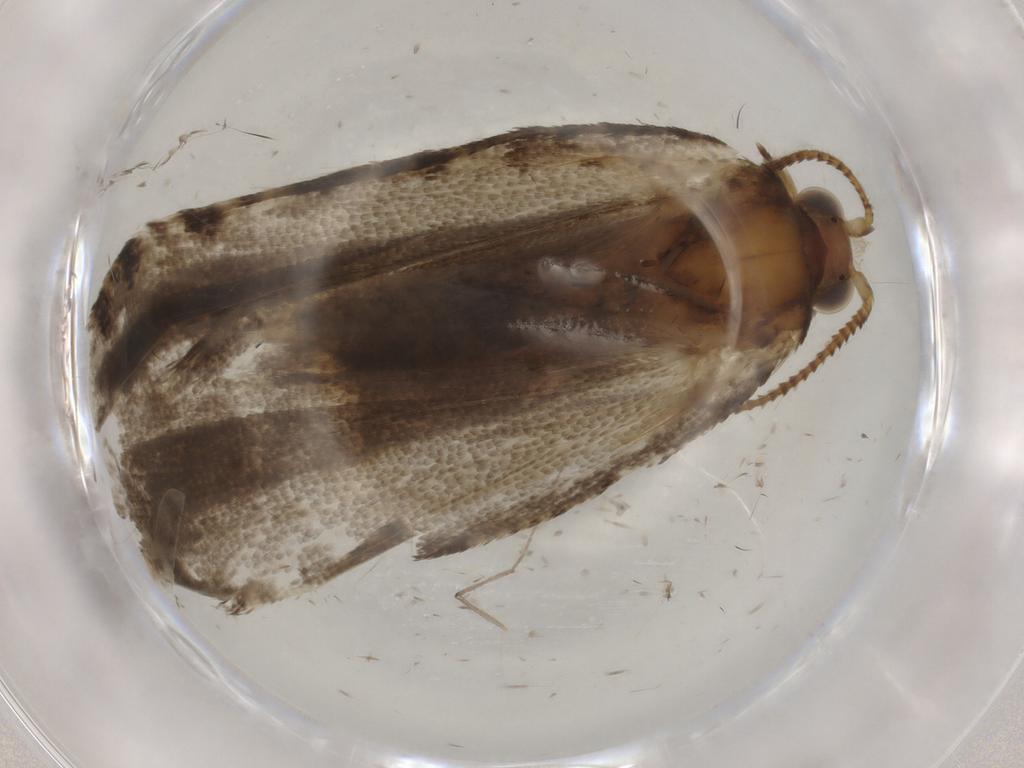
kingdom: Animalia
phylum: Arthropoda
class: Insecta
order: Lepidoptera
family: Tortricidae
